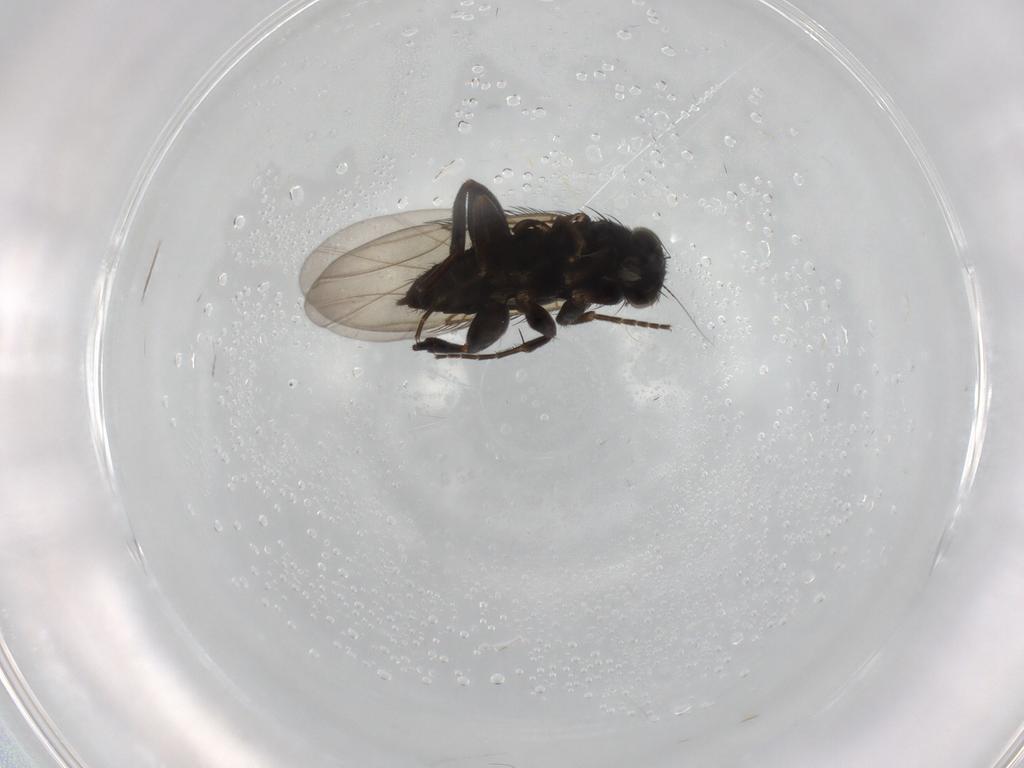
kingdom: Animalia
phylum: Arthropoda
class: Insecta
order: Diptera
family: Phoridae
